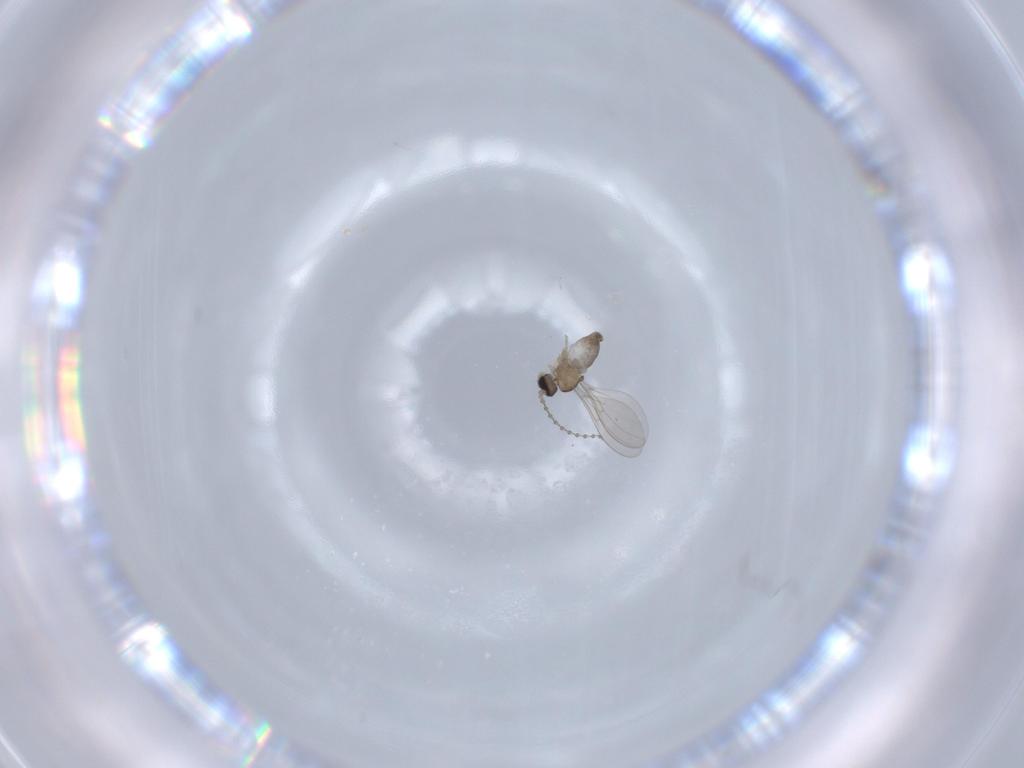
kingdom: Animalia
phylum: Arthropoda
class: Insecta
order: Diptera
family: Cecidomyiidae
